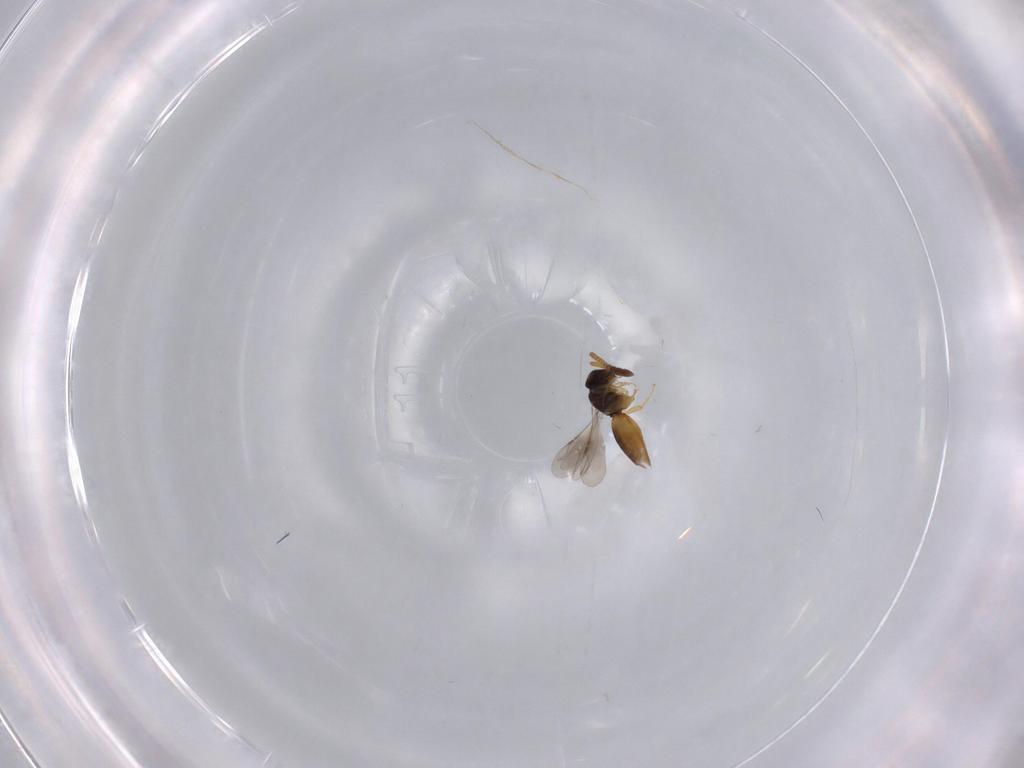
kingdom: Animalia
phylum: Arthropoda
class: Insecta
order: Hymenoptera
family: Ceraphronidae
